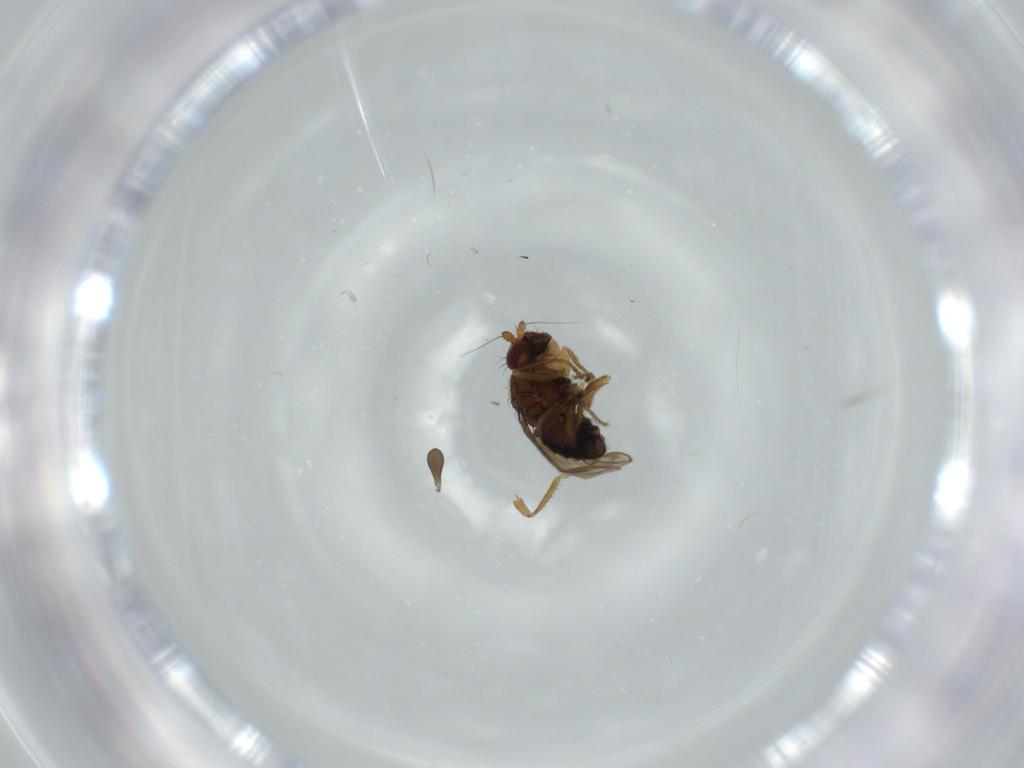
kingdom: Animalia
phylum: Arthropoda
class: Insecta
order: Diptera
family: Sphaeroceridae
